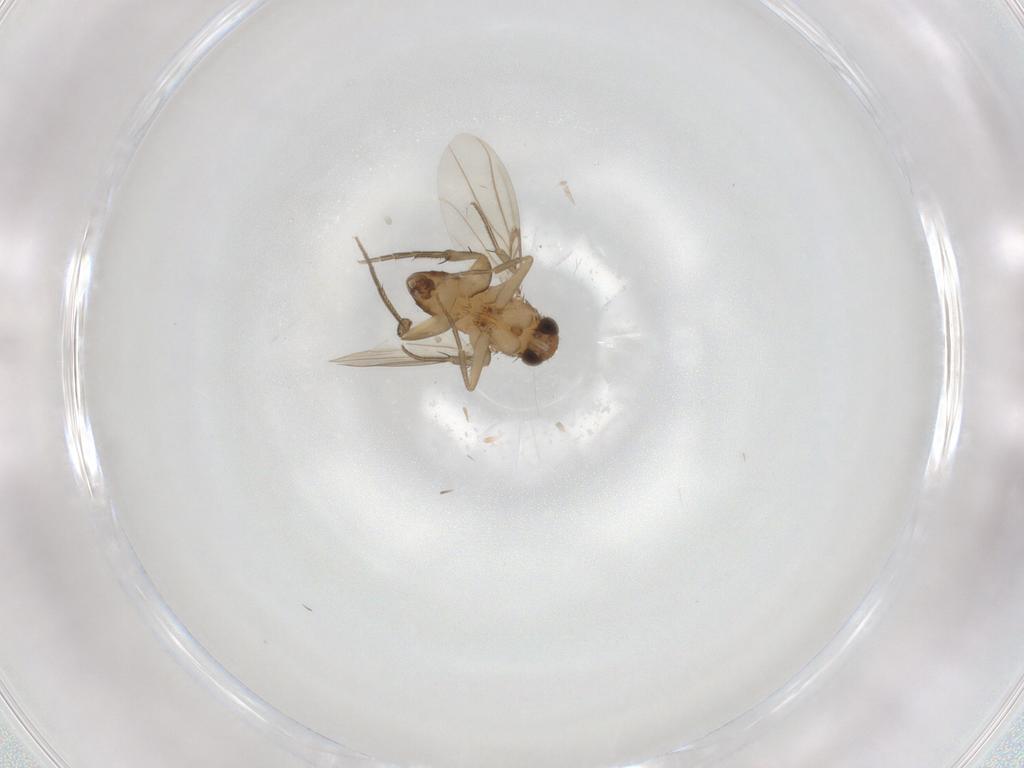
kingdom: Animalia
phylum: Arthropoda
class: Insecta
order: Diptera
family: Phoridae
